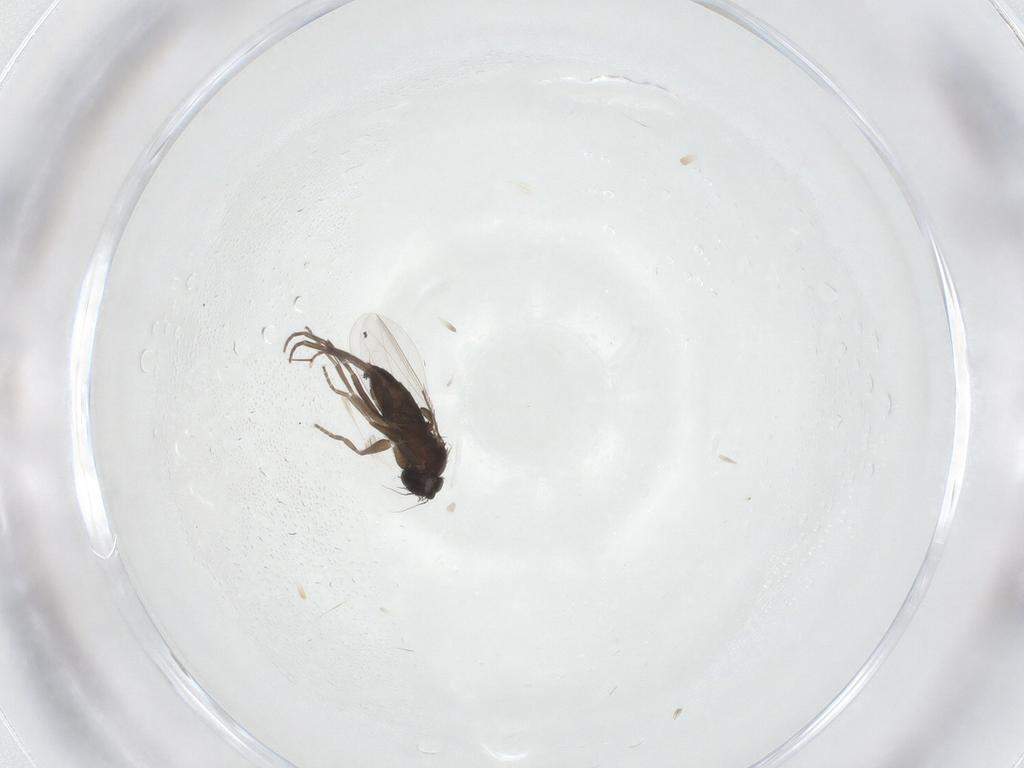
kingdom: Animalia
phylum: Arthropoda
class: Insecta
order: Diptera
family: Phoridae
